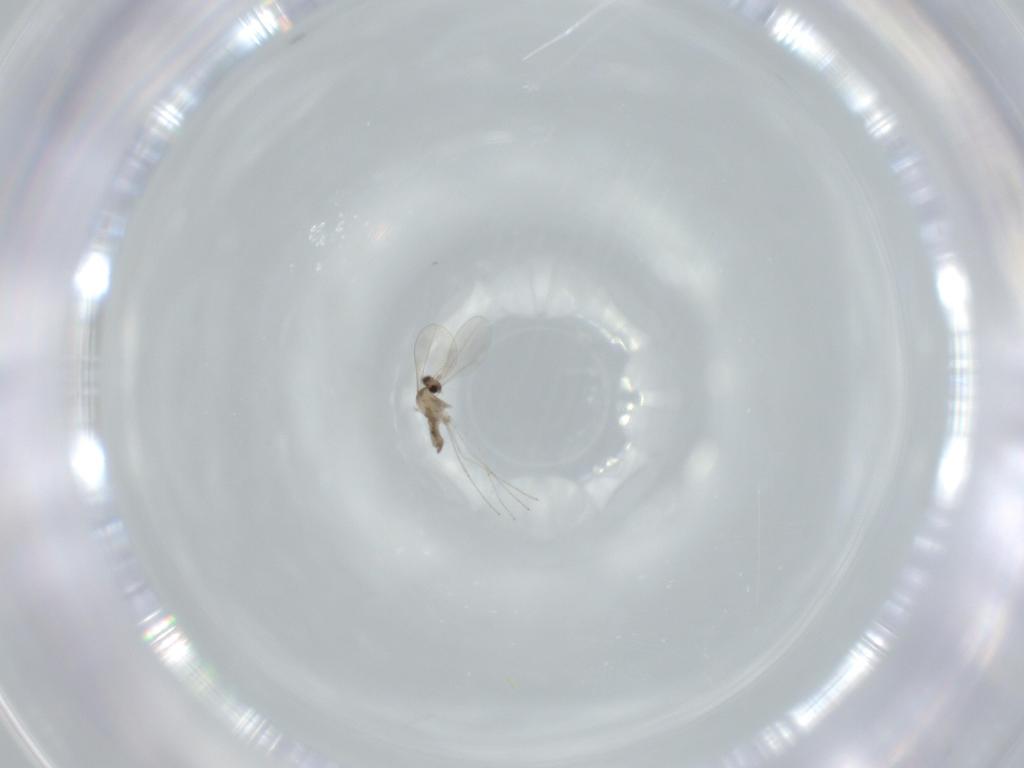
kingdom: Animalia
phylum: Arthropoda
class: Insecta
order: Diptera
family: Cecidomyiidae
